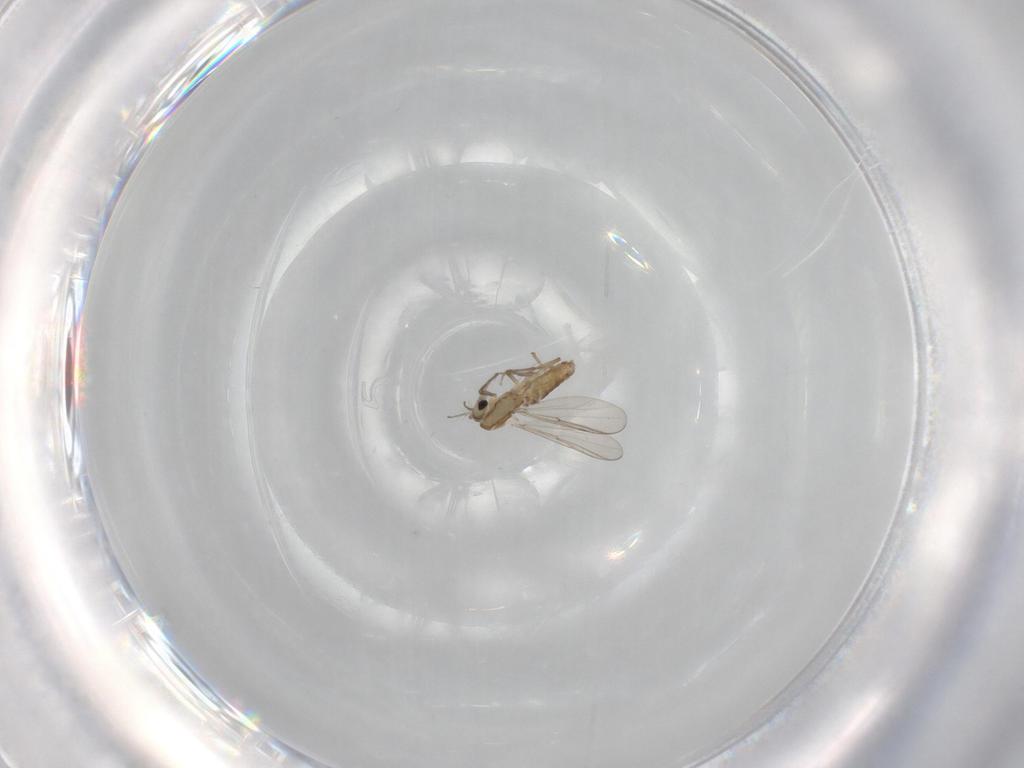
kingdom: Animalia
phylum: Arthropoda
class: Insecta
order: Diptera
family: Cecidomyiidae
